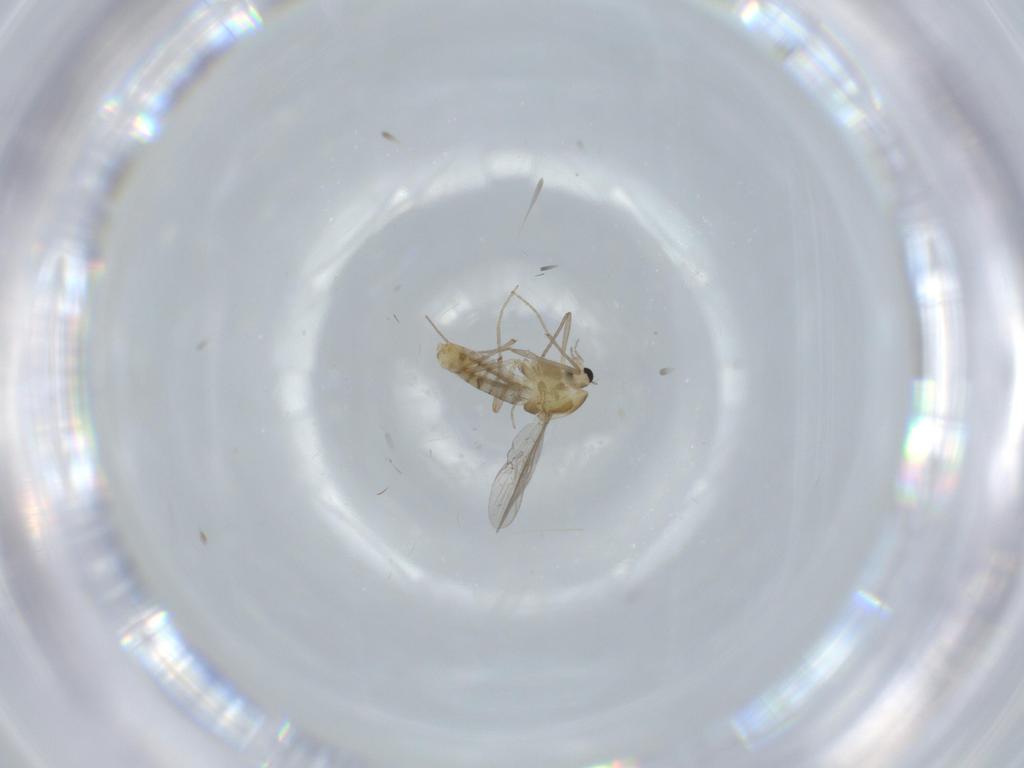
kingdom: Animalia
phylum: Arthropoda
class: Insecta
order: Diptera
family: Chironomidae
